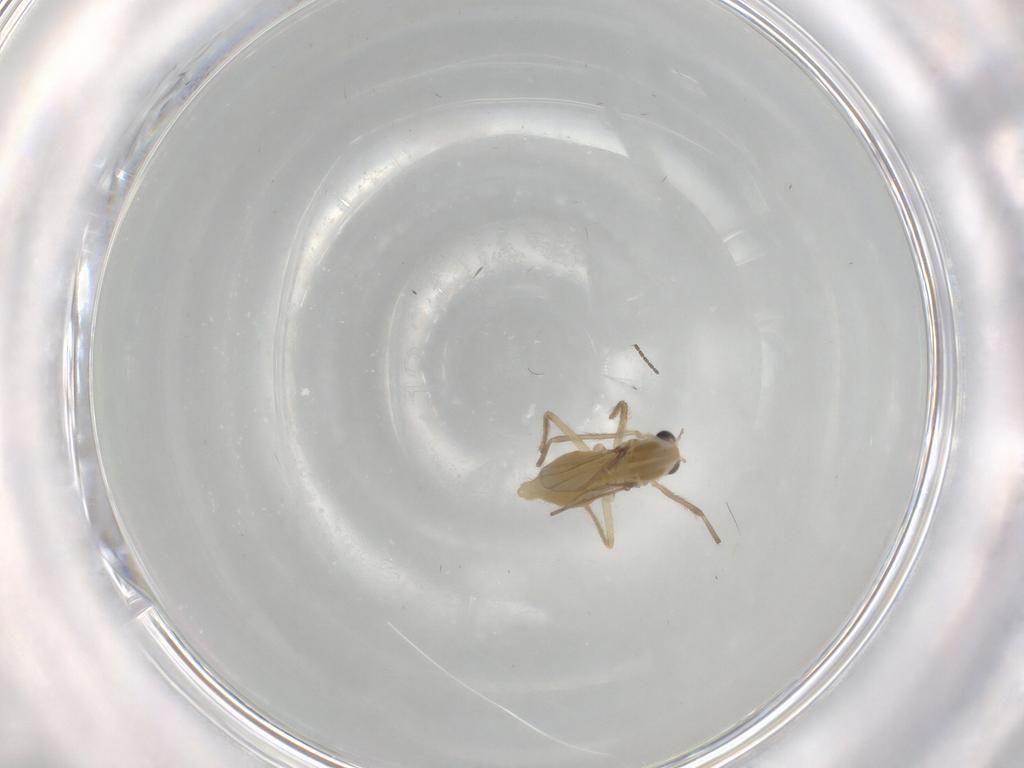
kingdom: Animalia
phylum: Arthropoda
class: Insecta
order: Diptera
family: Chironomidae
